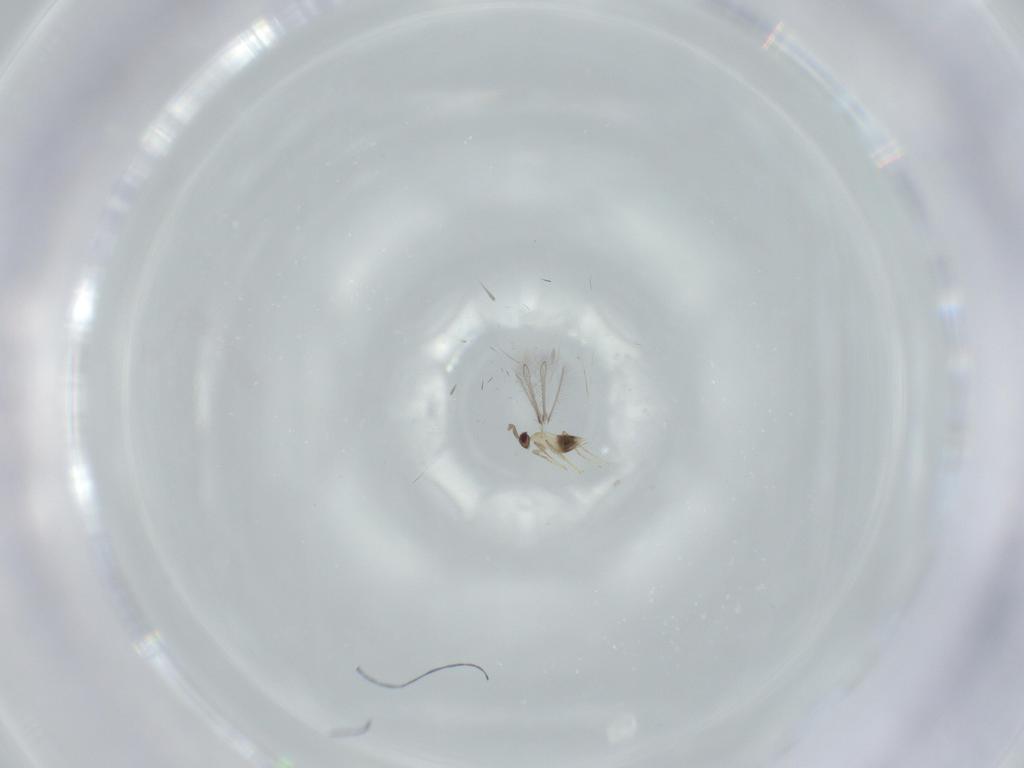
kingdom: Animalia
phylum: Arthropoda
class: Insecta
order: Hymenoptera
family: Mymaridae
